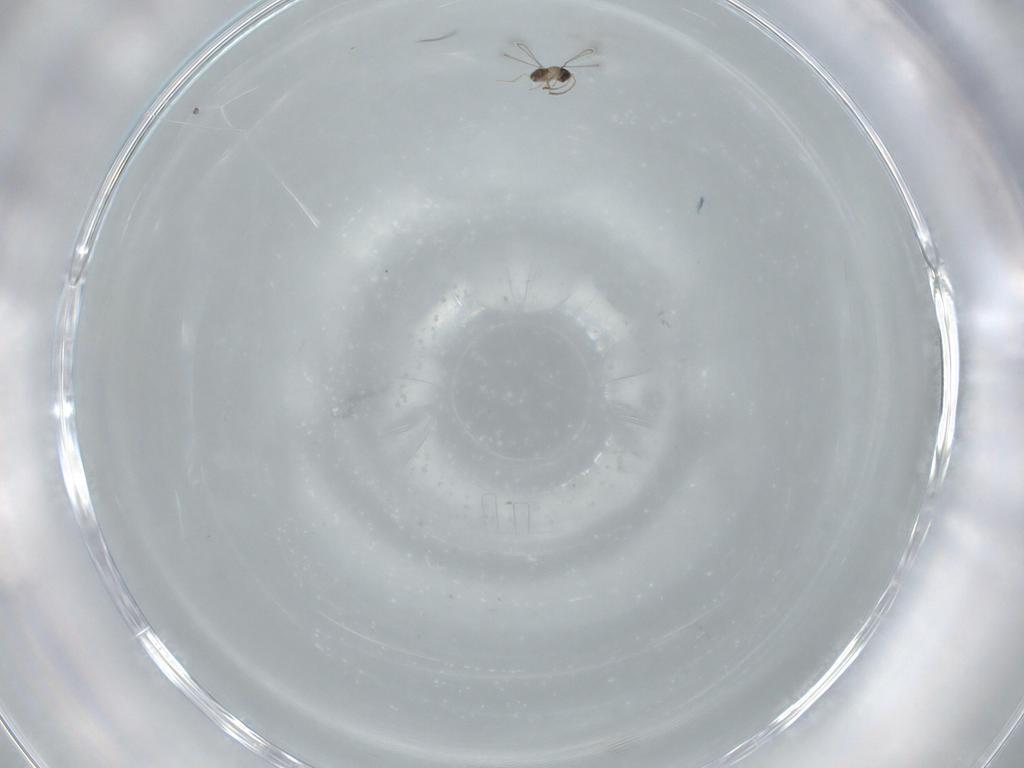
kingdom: Animalia
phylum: Arthropoda
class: Insecta
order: Hymenoptera
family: Mymaridae
